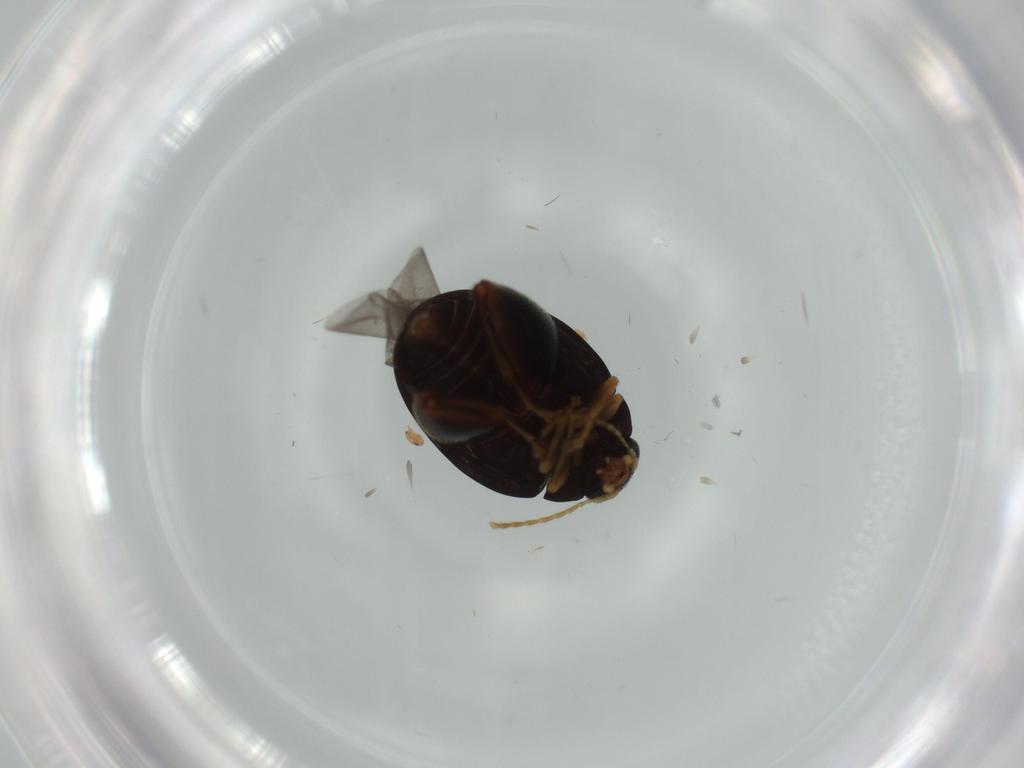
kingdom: Animalia
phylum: Arthropoda
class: Insecta
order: Coleoptera
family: Chrysomelidae
